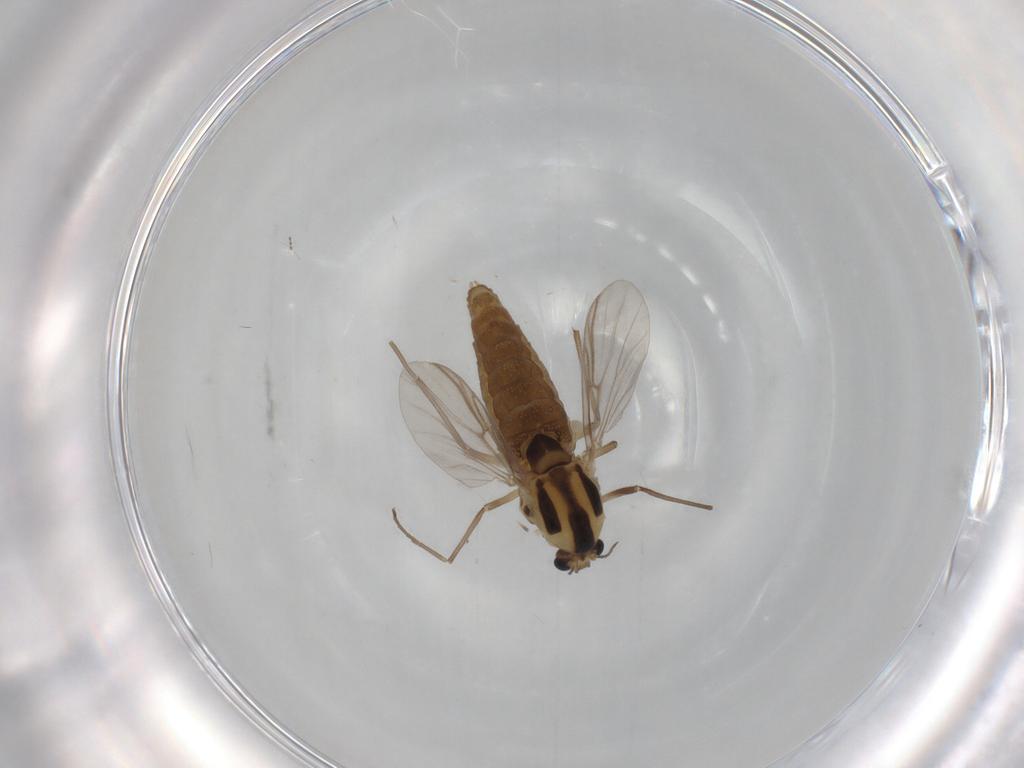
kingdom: Animalia
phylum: Arthropoda
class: Insecta
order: Diptera
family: Chironomidae
